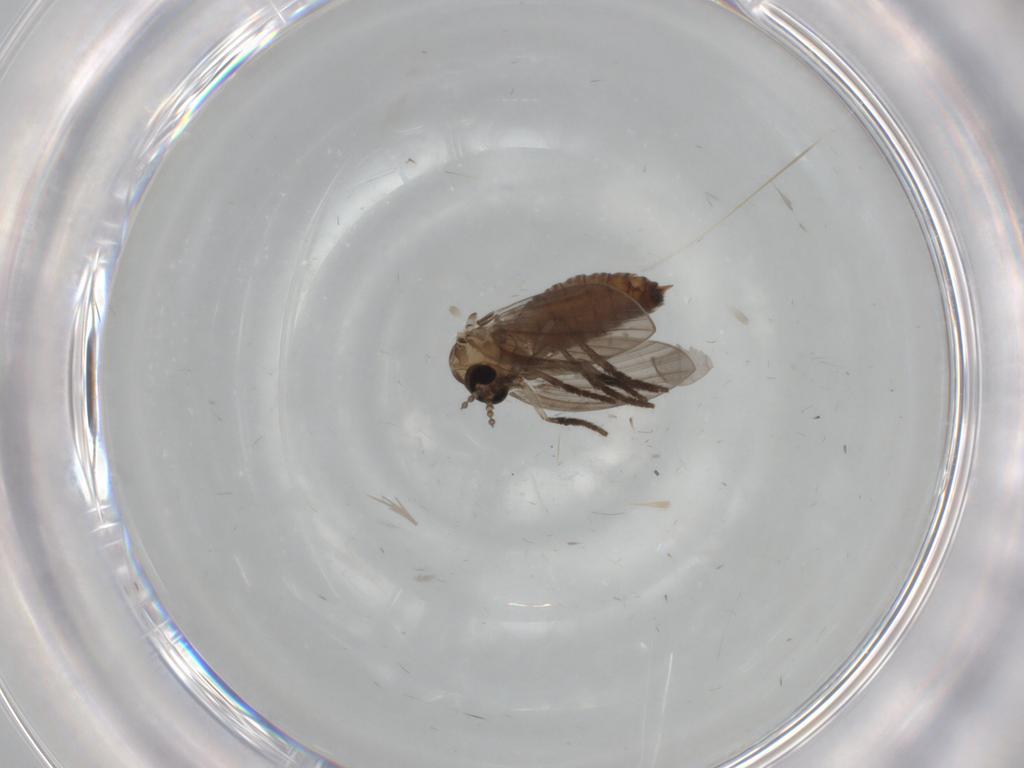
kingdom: Animalia
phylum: Arthropoda
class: Insecta
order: Diptera
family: Psychodidae
